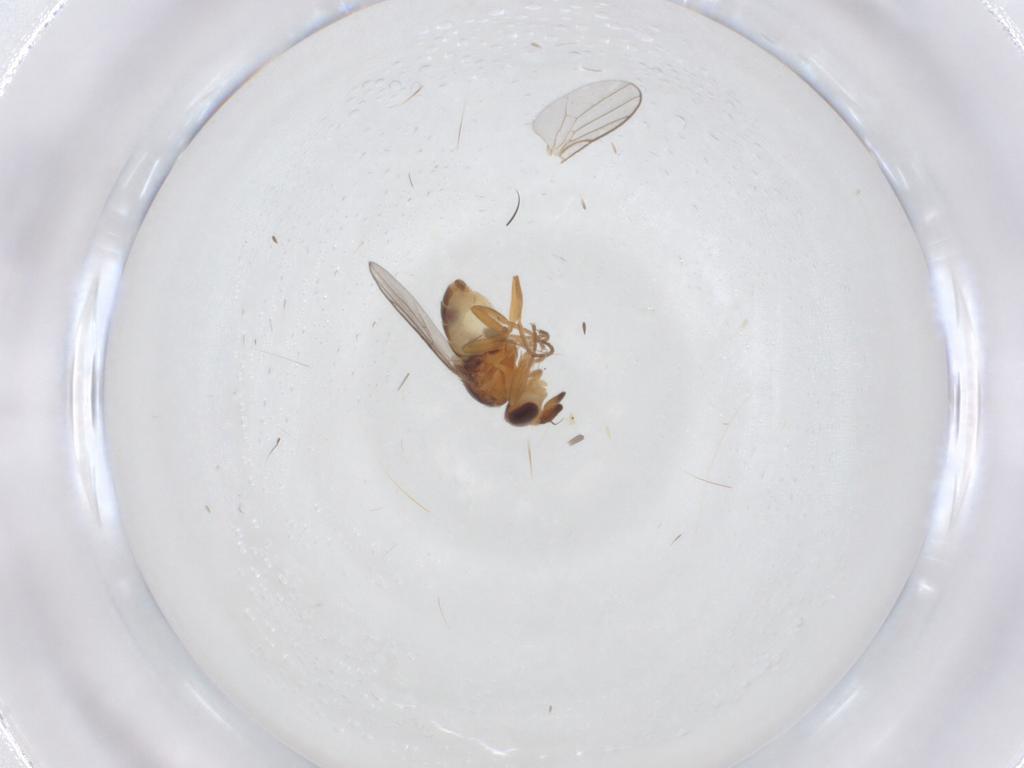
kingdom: Animalia
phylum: Arthropoda
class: Insecta
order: Diptera
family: Chloropidae
